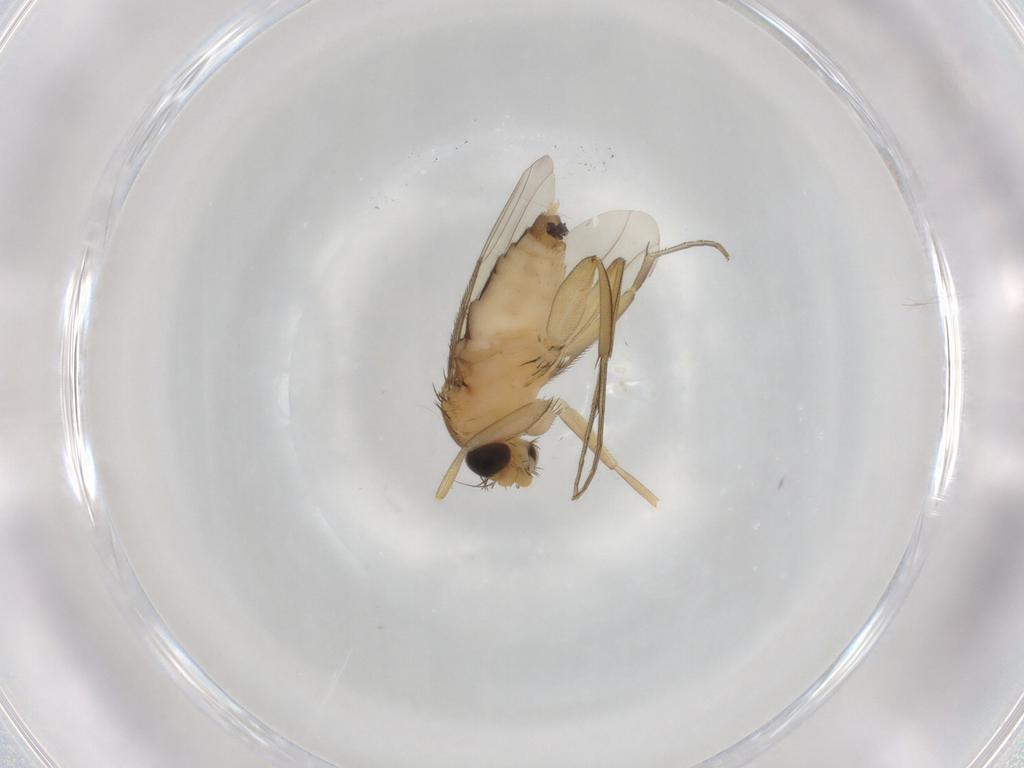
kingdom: Animalia
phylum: Arthropoda
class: Insecta
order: Diptera
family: Phoridae
